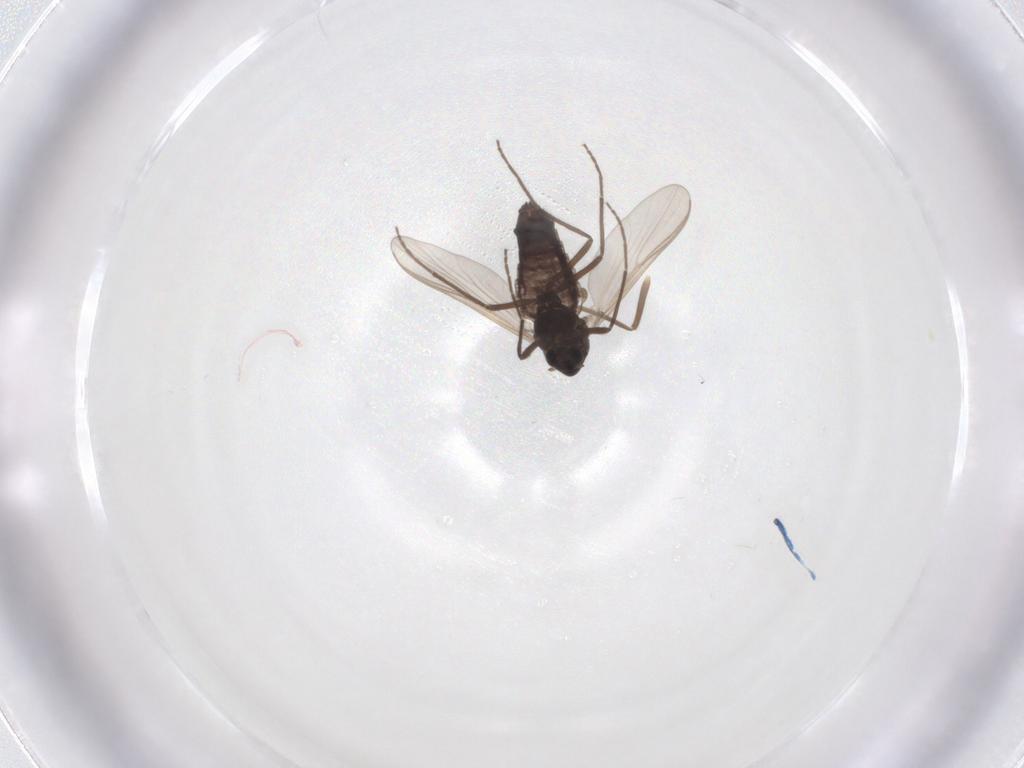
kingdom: Animalia
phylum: Arthropoda
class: Insecta
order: Diptera
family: Chironomidae
